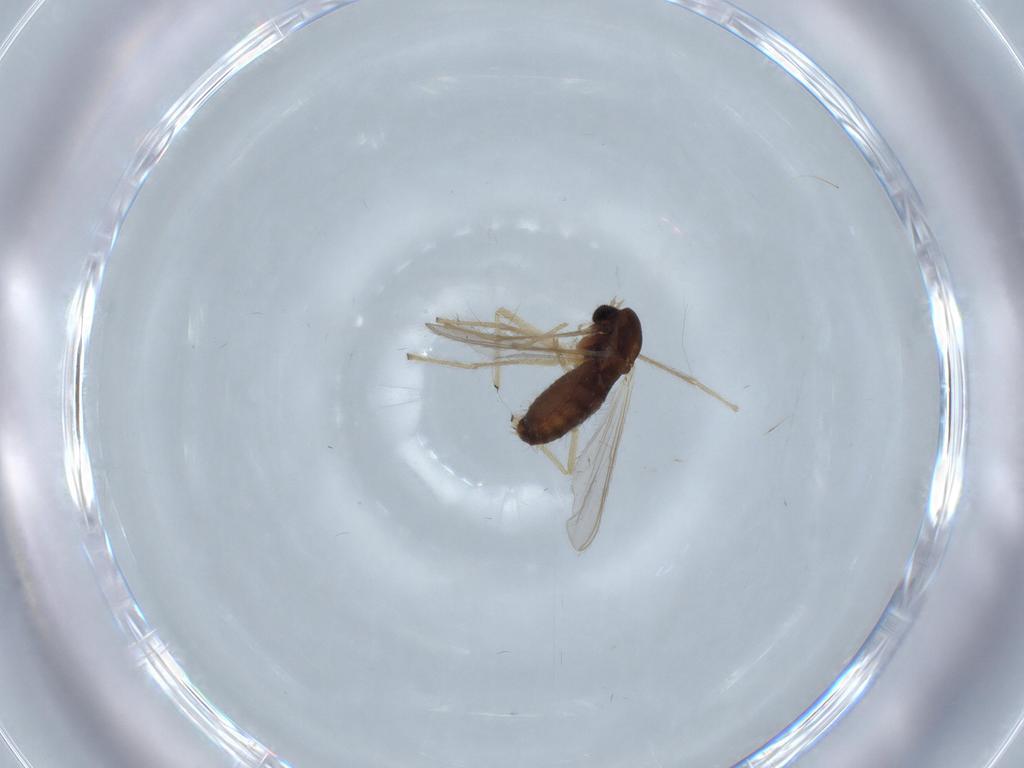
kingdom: Animalia
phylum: Arthropoda
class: Insecta
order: Diptera
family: Chironomidae
